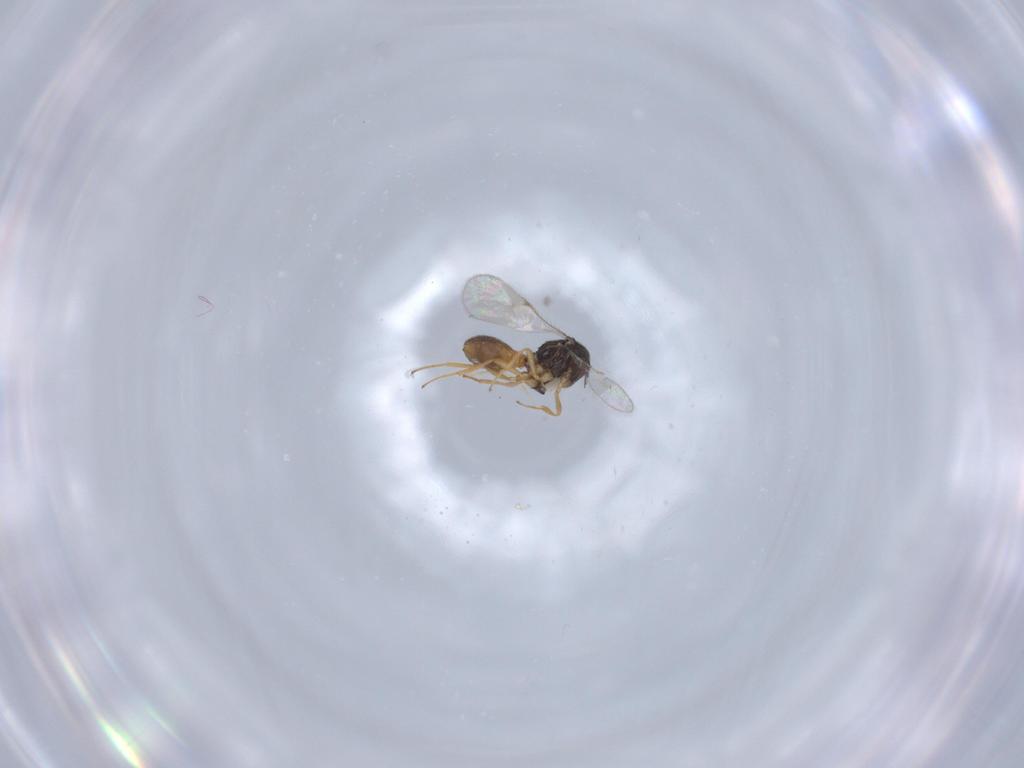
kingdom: Animalia
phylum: Arthropoda
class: Insecta
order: Hymenoptera
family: Scelionidae
